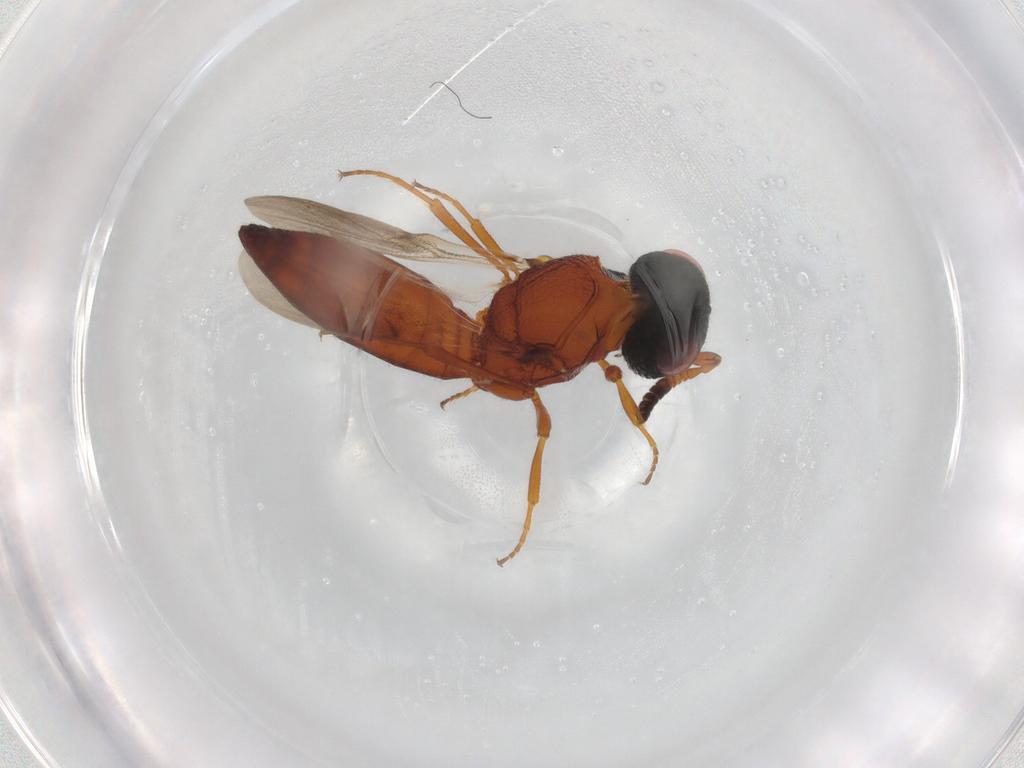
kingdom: Animalia
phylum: Arthropoda
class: Insecta
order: Hymenoptera
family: Scelionidae
